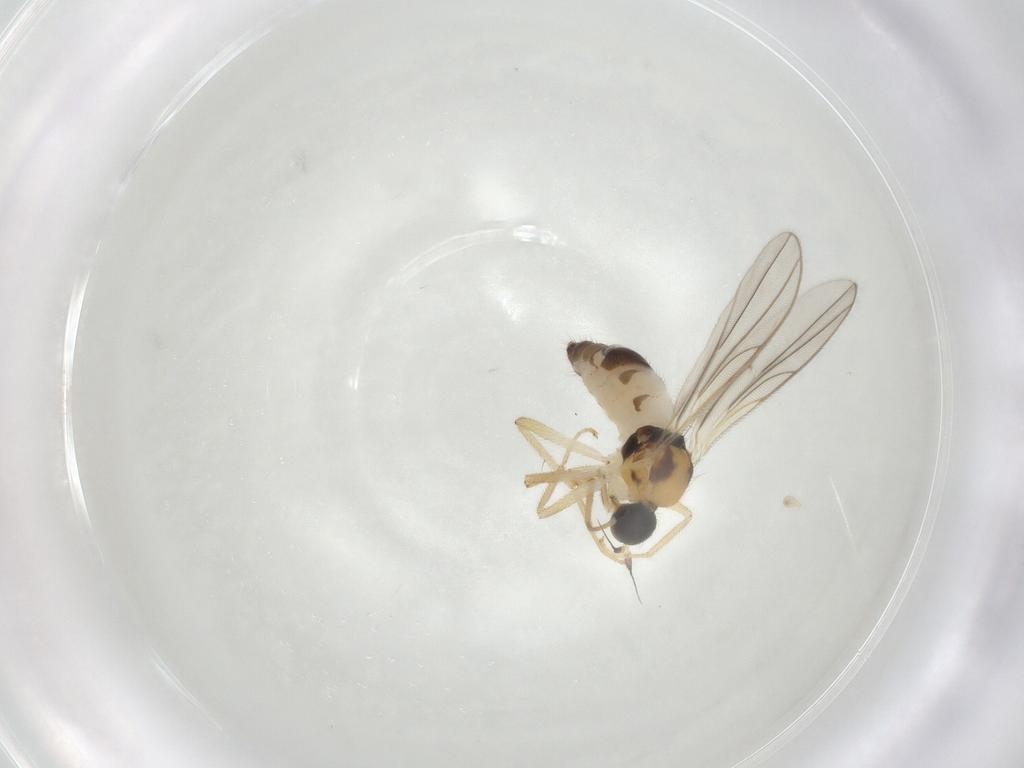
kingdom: Animalia
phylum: Arthropoda
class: Insecta
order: Diptera
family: Hybotidae
